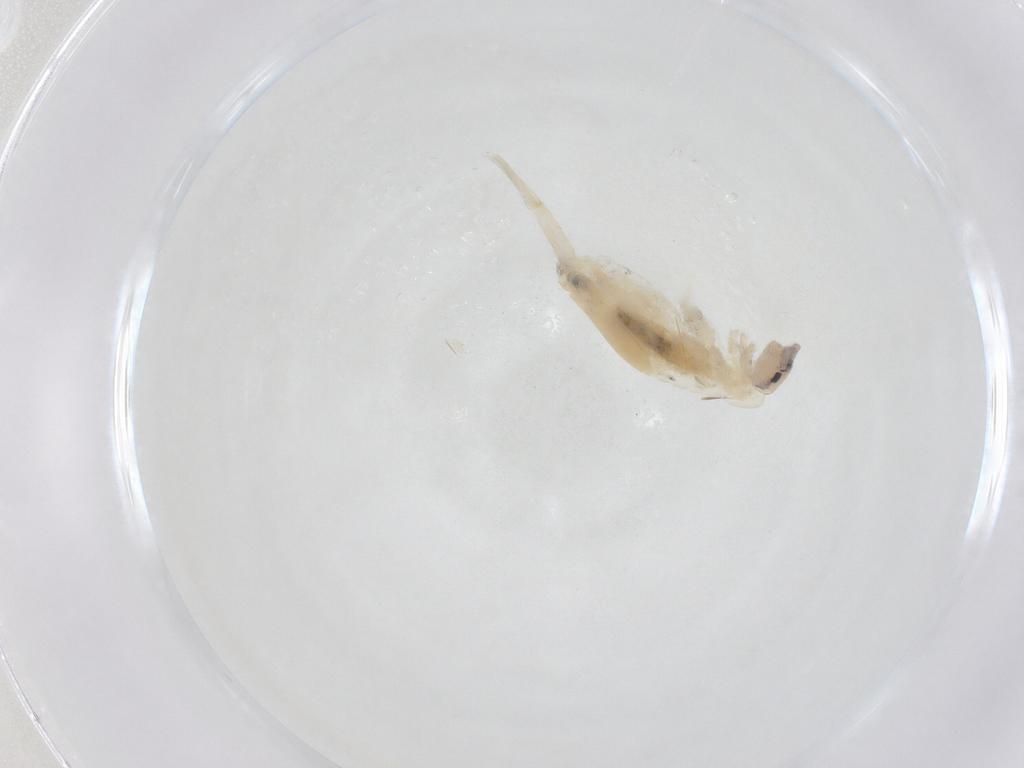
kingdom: Animalia
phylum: Arthropoda
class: Collembola
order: Entomobryomorpha
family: Entomobryidae
